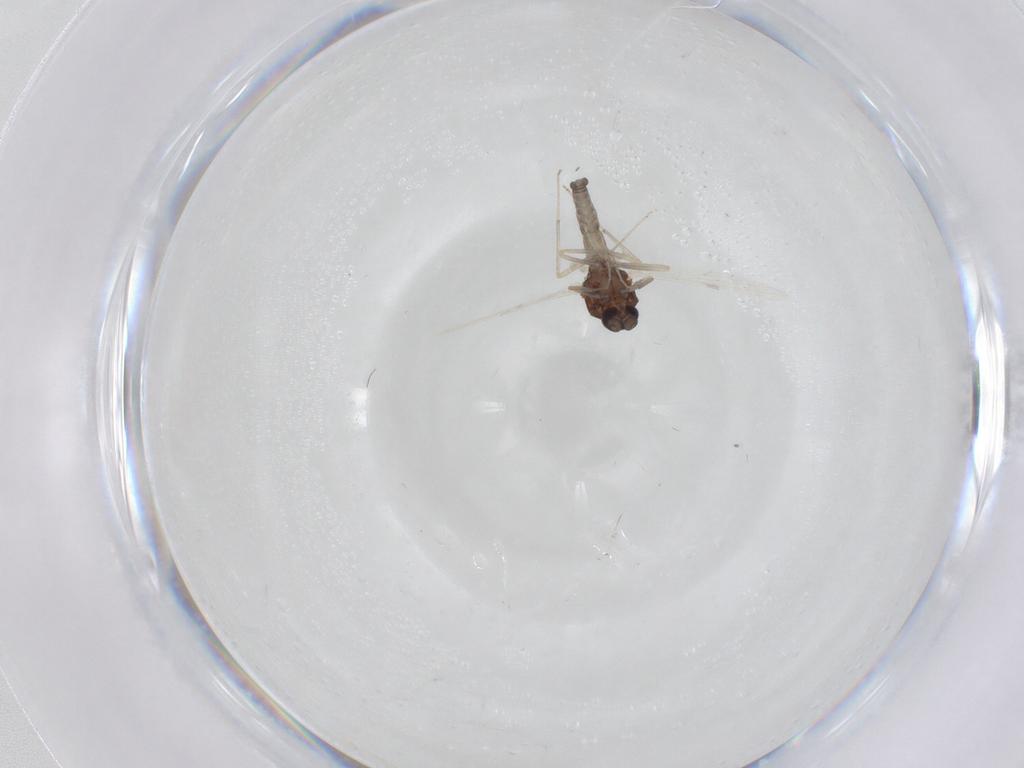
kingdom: Animalia
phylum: Arthropoda
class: Insecta
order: Diptera
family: Ceratopogonidae
